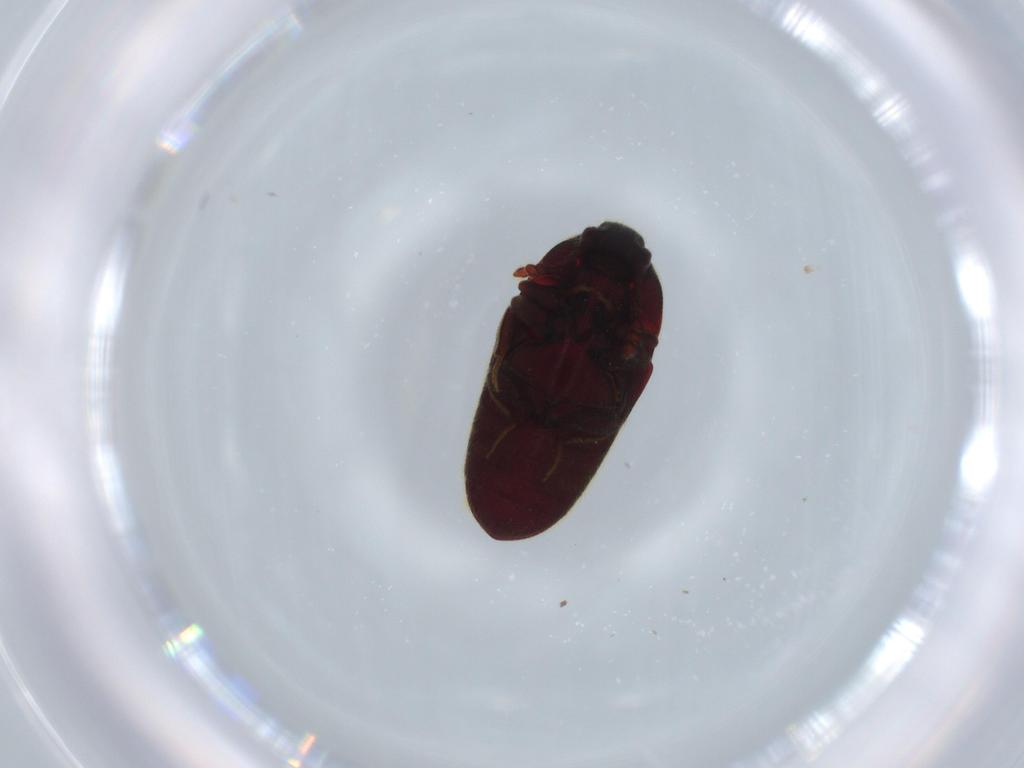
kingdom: Animalia
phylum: Arthropoda
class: Insecta
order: Coleoptera
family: Throscidae
